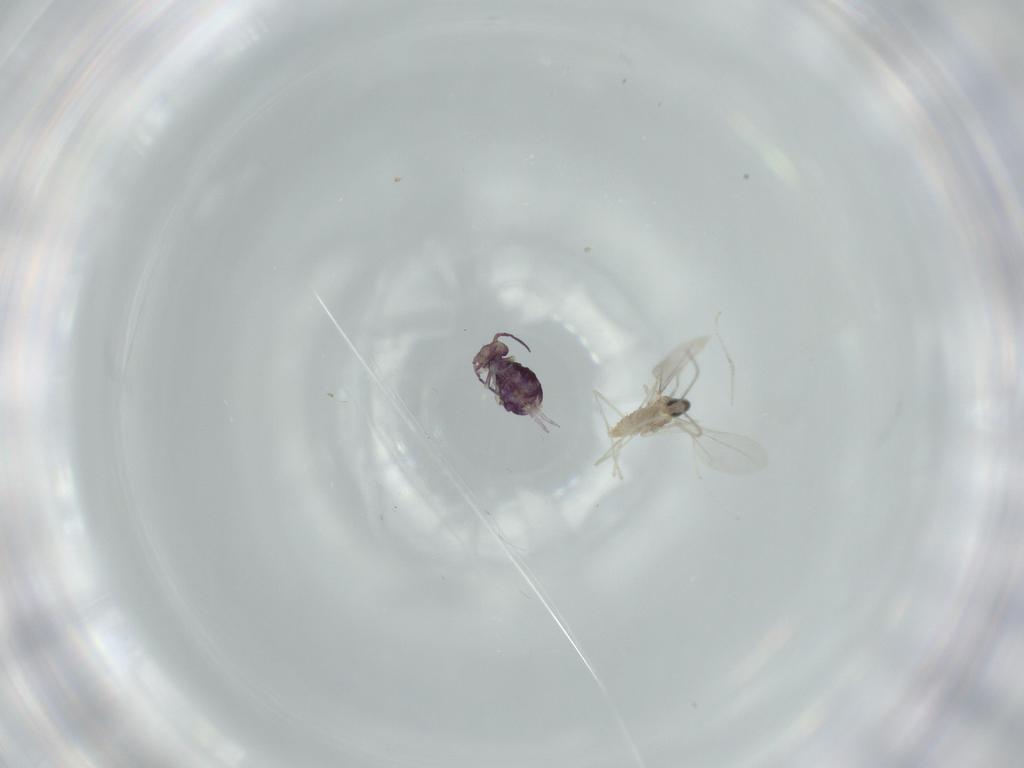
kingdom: Animalia
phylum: Arthropoda
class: Collembola
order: Symphypleona
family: Sminthuridae
